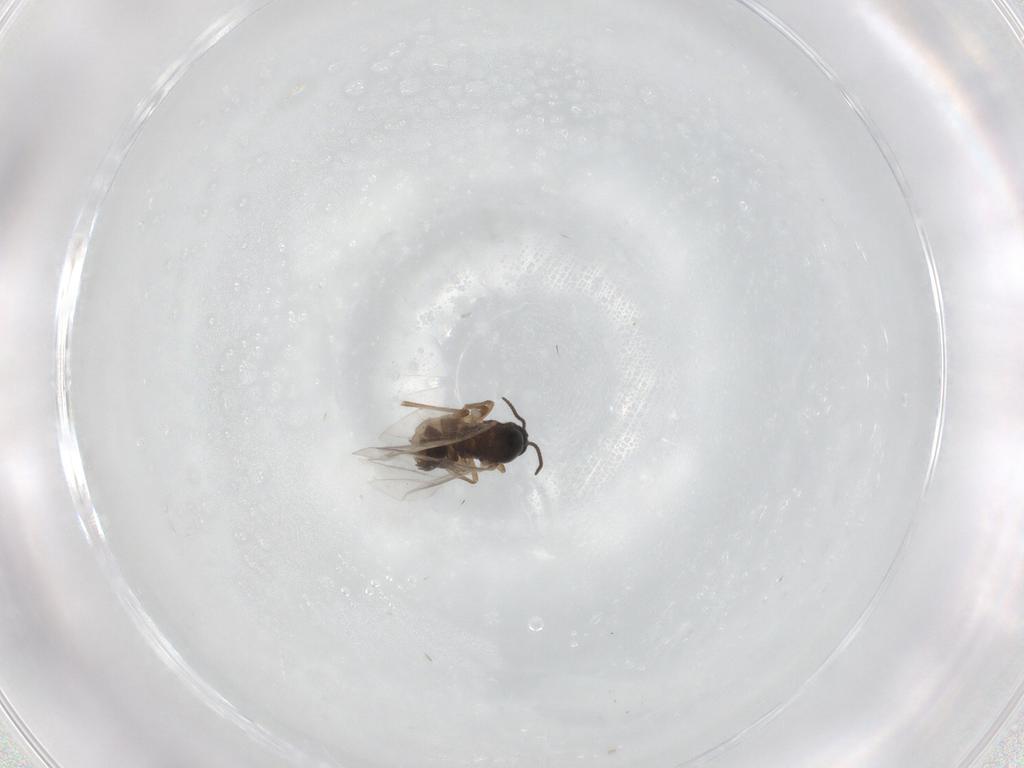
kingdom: Animalia
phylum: Arthropoda
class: Insecta
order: Diptera
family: Sciaridae
